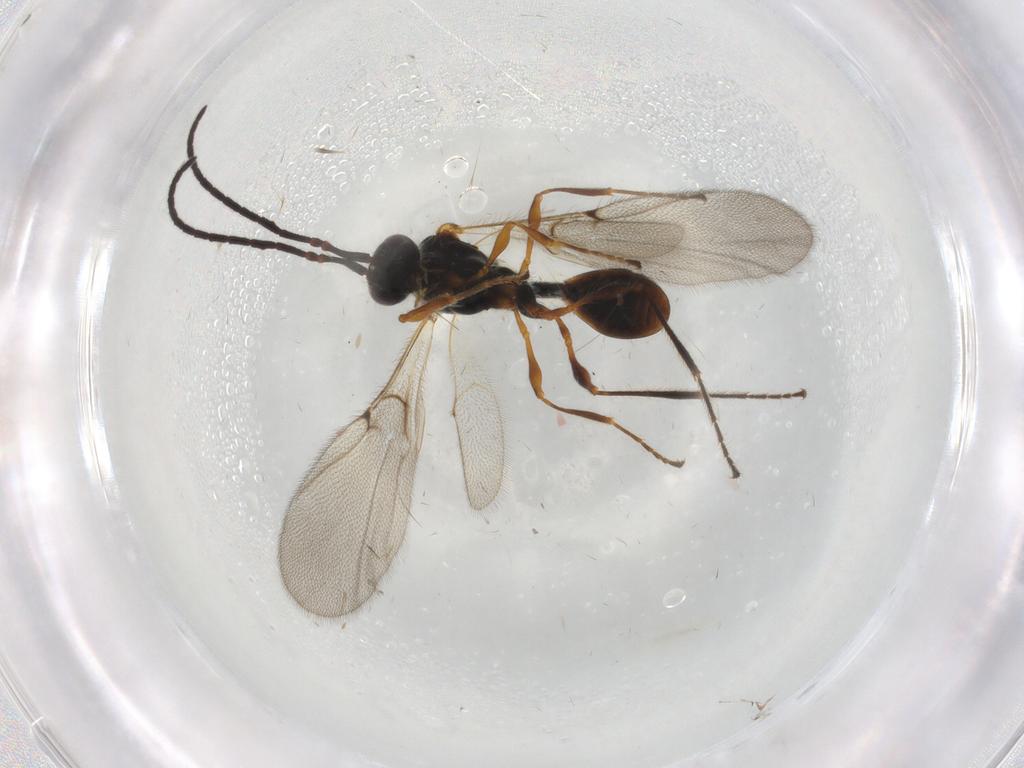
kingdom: Animalia
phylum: Arthropoda
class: Insecta
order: Hymenoptera
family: Diapriidae
